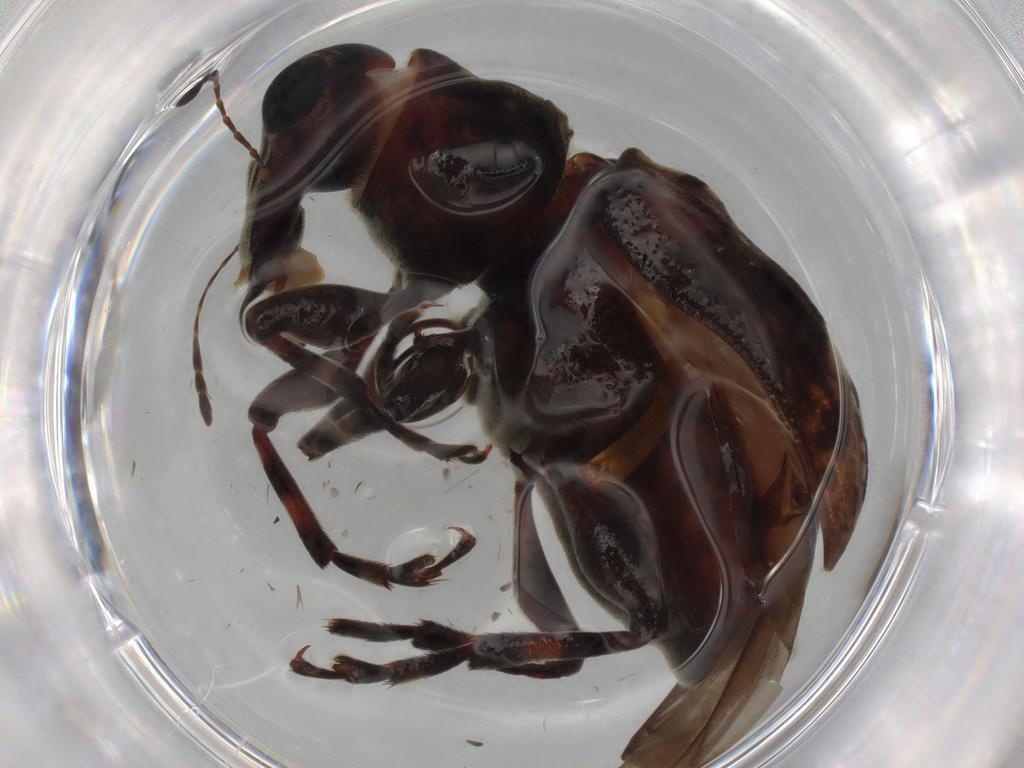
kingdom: Animalia
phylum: Arthropoda
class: Insecta
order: Coleoptera
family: Anthribidae
